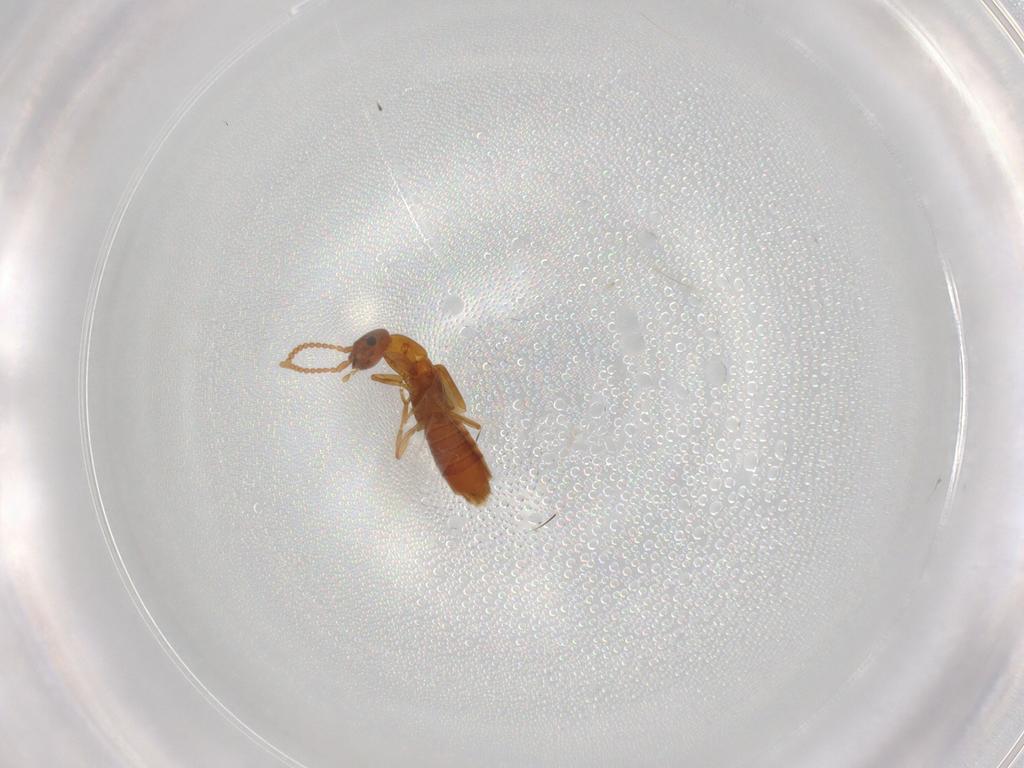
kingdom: Animalia
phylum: Arthropoda
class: Insecta
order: Coleoptera
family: Staphylinidae
